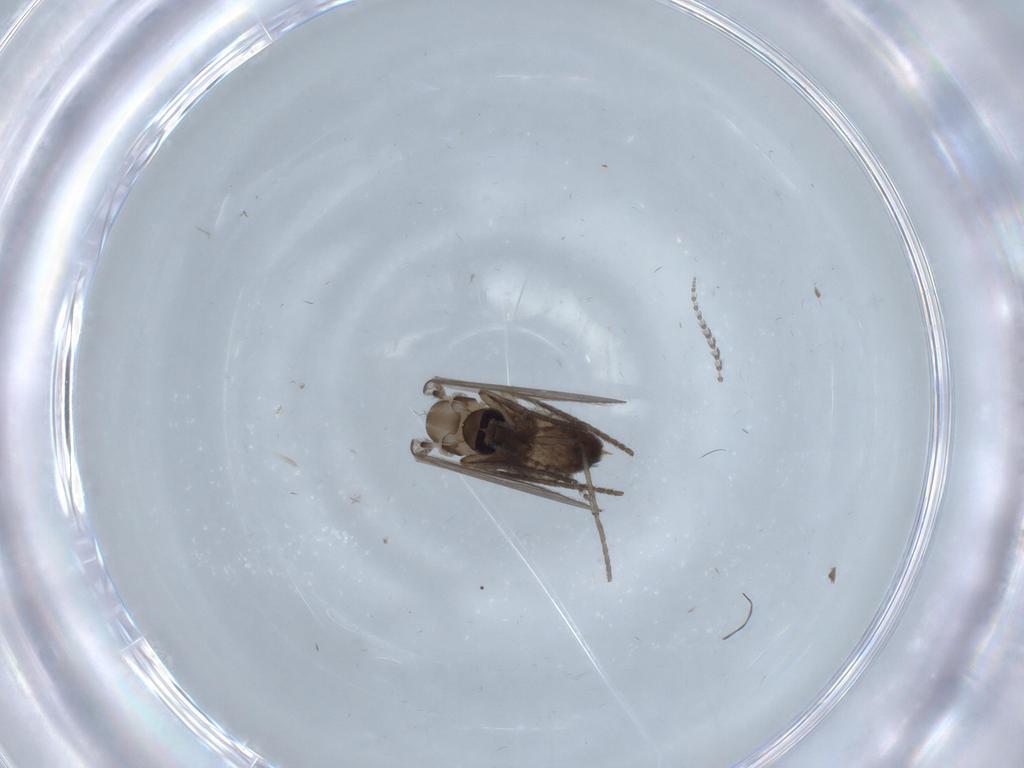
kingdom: Animalia
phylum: Arthropoda
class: Insecta
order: Diptera
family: Psychodidae
